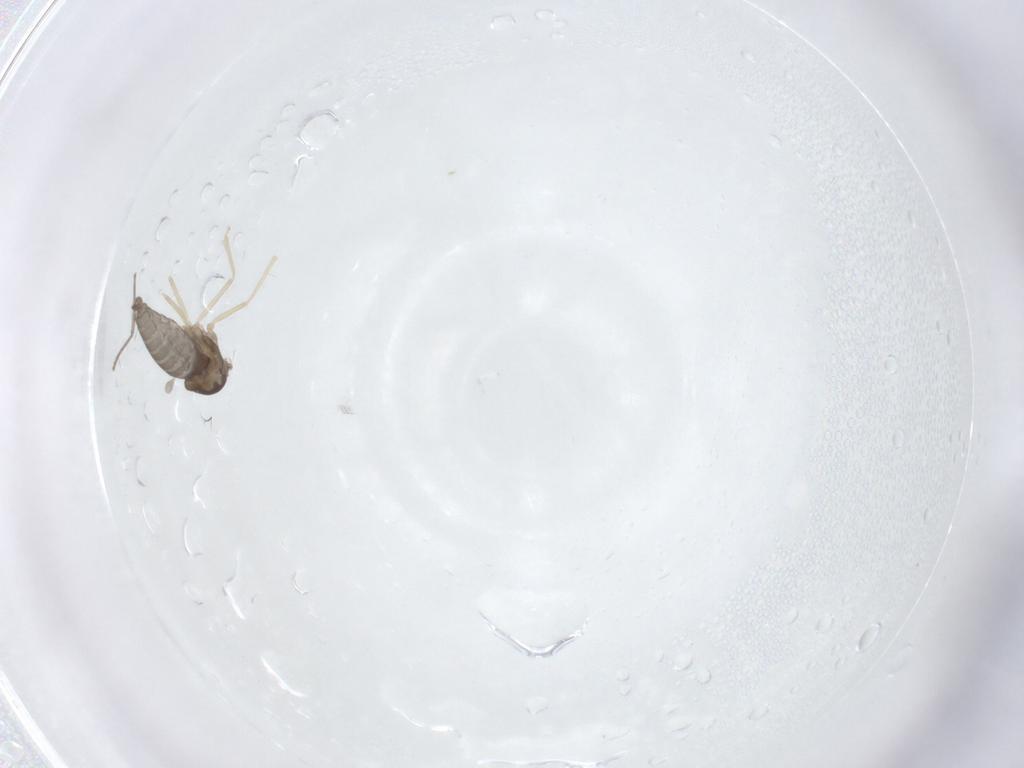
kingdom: Animalia
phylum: Arthropoda
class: Insecta
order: Diptera
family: Cecidomyiidae
